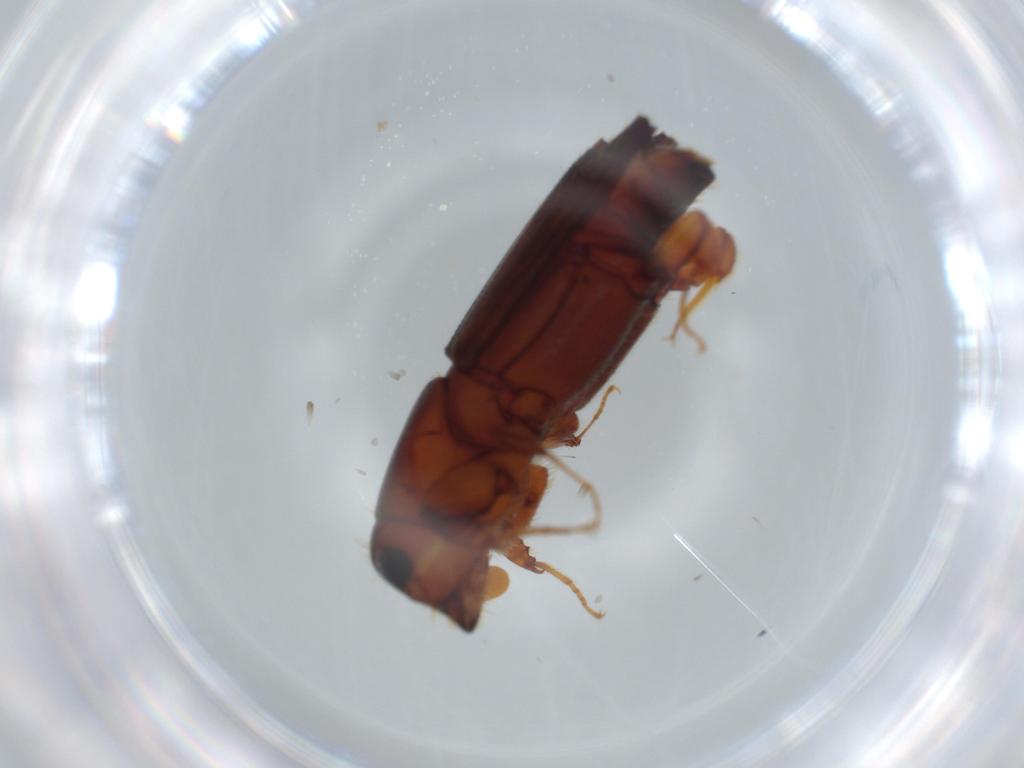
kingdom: Animalia
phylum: Arthropoda
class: Insecta
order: Coleoptera
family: Curculionidae
